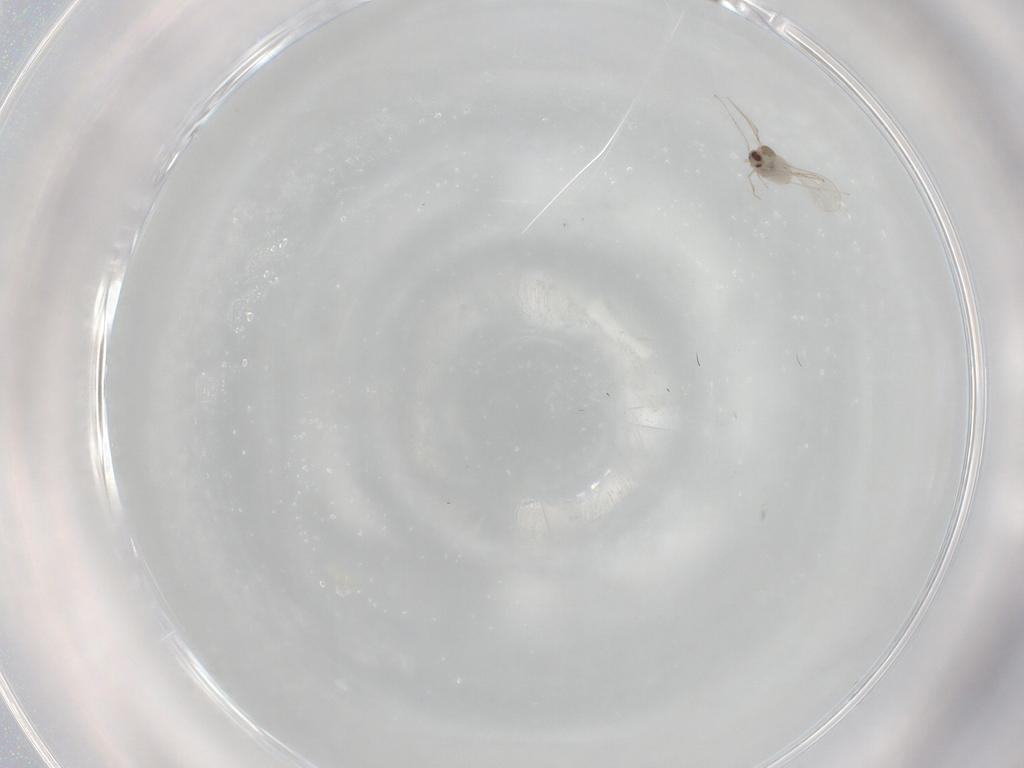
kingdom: Animalia
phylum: Arthropoda
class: Insecta
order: Diptera
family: Cecidomyiidae
